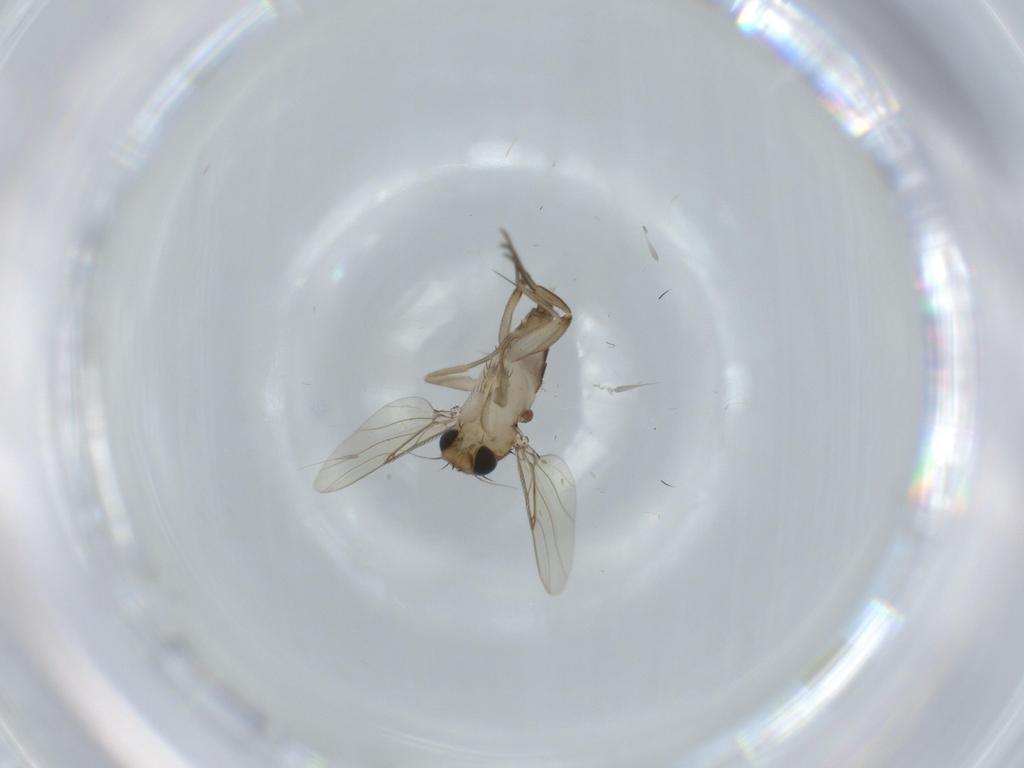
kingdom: Animalia
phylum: Arthropoda
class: Insecta
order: Diptera
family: Phoridae
